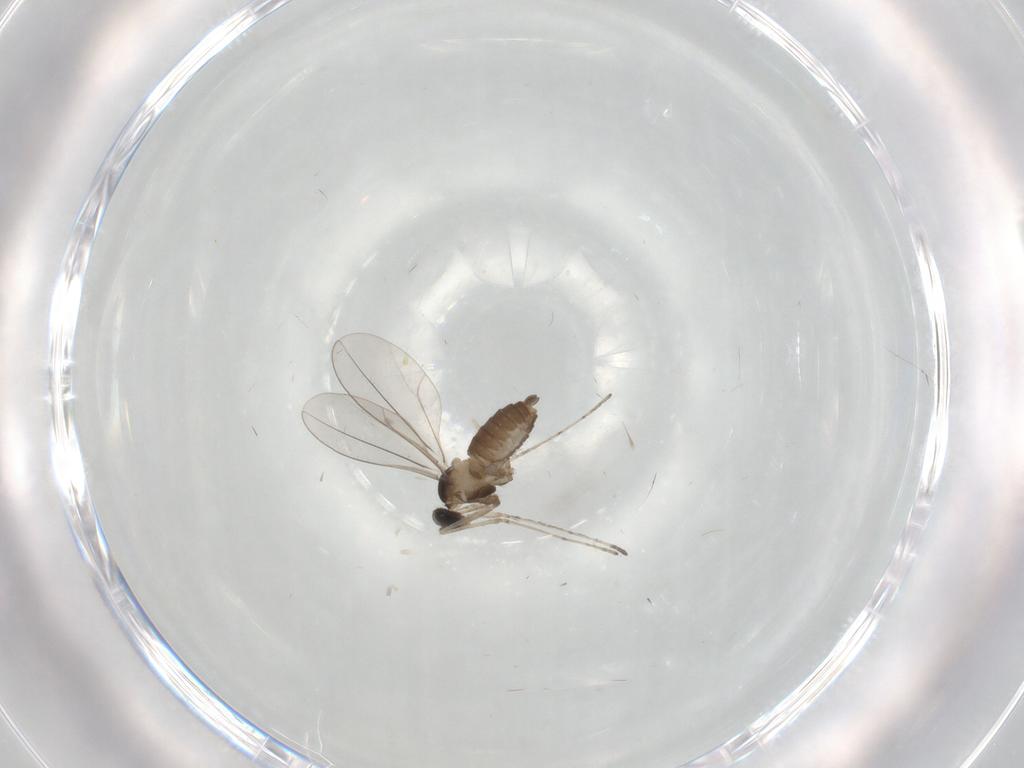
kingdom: Animalia
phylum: Arthropoda
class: Insecta
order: Diptera
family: Cecidomyiidae
